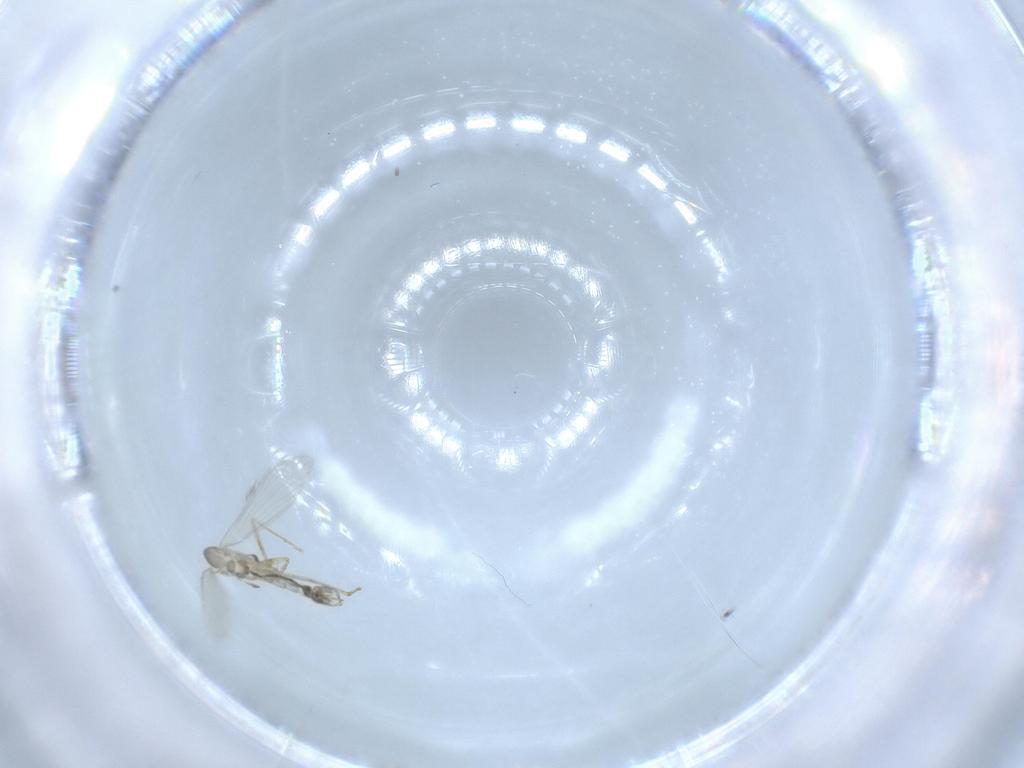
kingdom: Animalia
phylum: Arthropoda
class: Insecta
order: Diptera
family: Psychodidae
